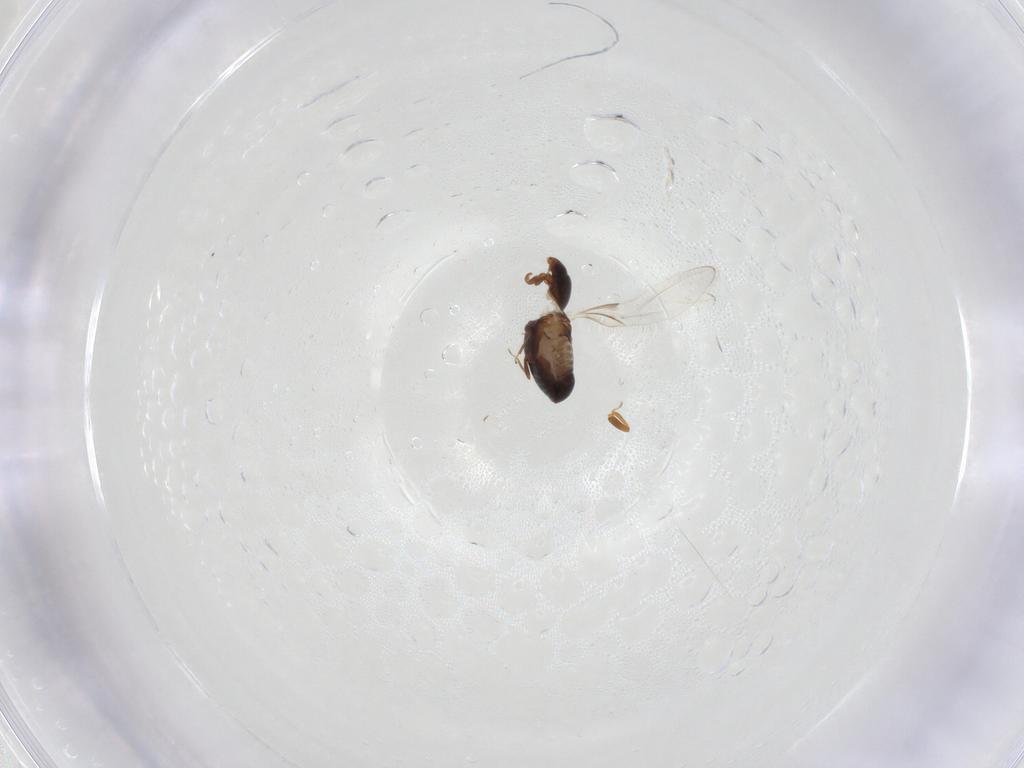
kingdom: Animalia
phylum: Arthropoda
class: Insecta
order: Coleoptera
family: Corylophidae
